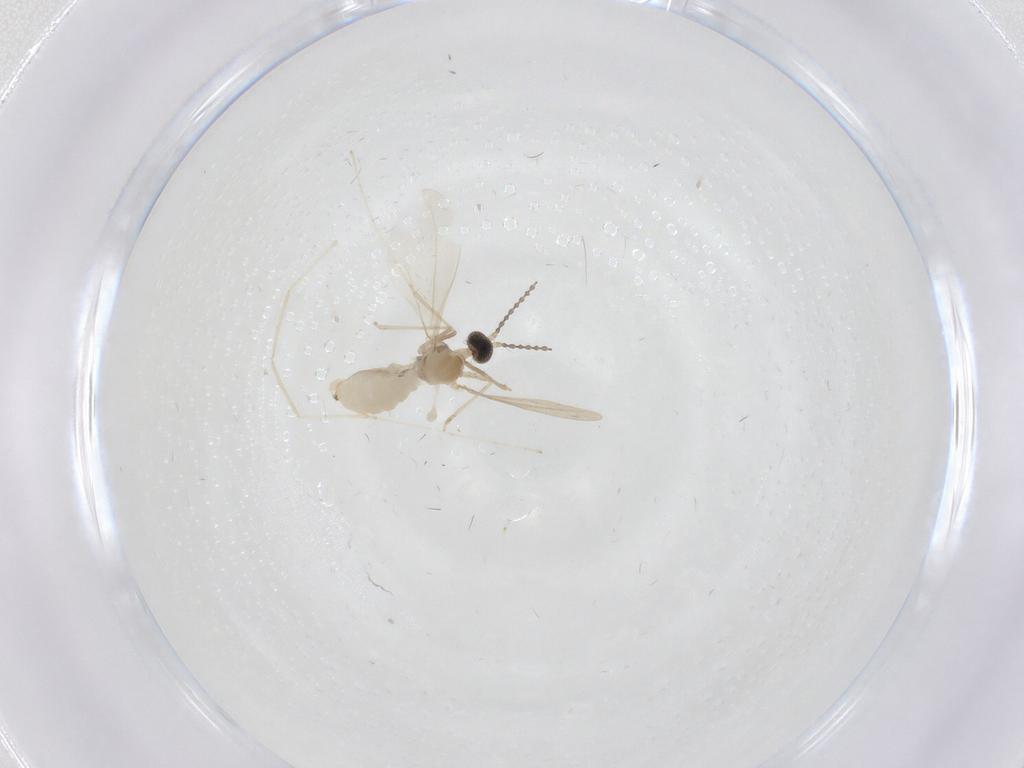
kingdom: Animalia
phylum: Arthropoda
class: Insecta
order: Diptera
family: Cecidomyiidae
